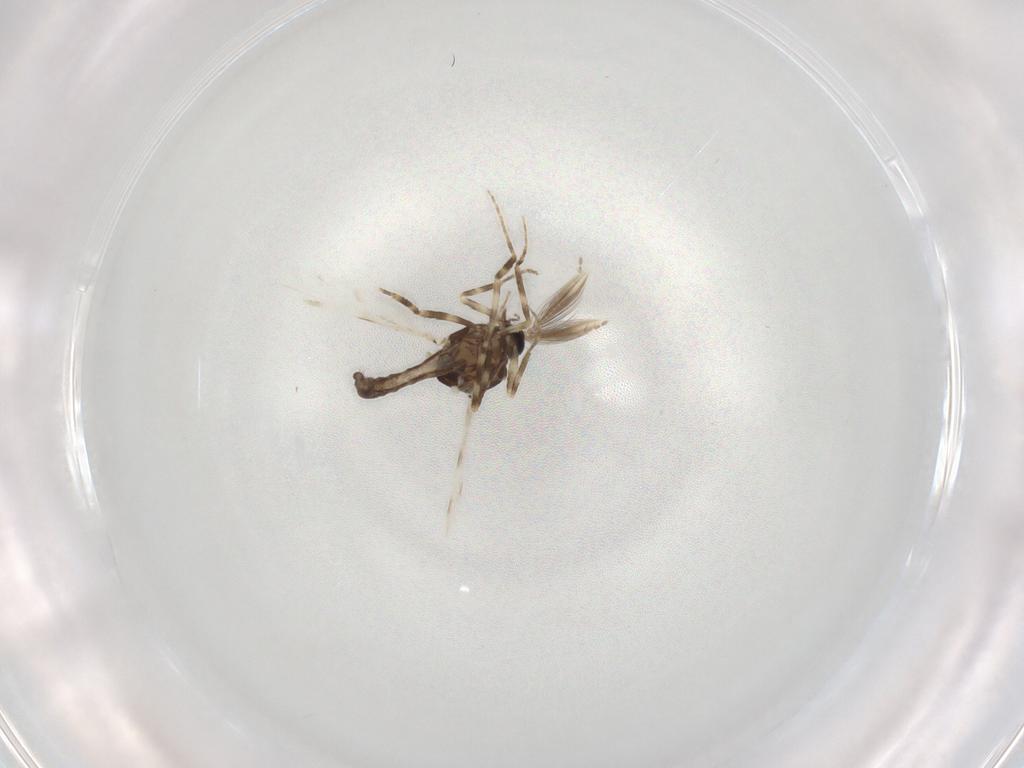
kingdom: Animalia
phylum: Arthropoda
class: Insecta
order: Diptera
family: Ceratopogonidae
